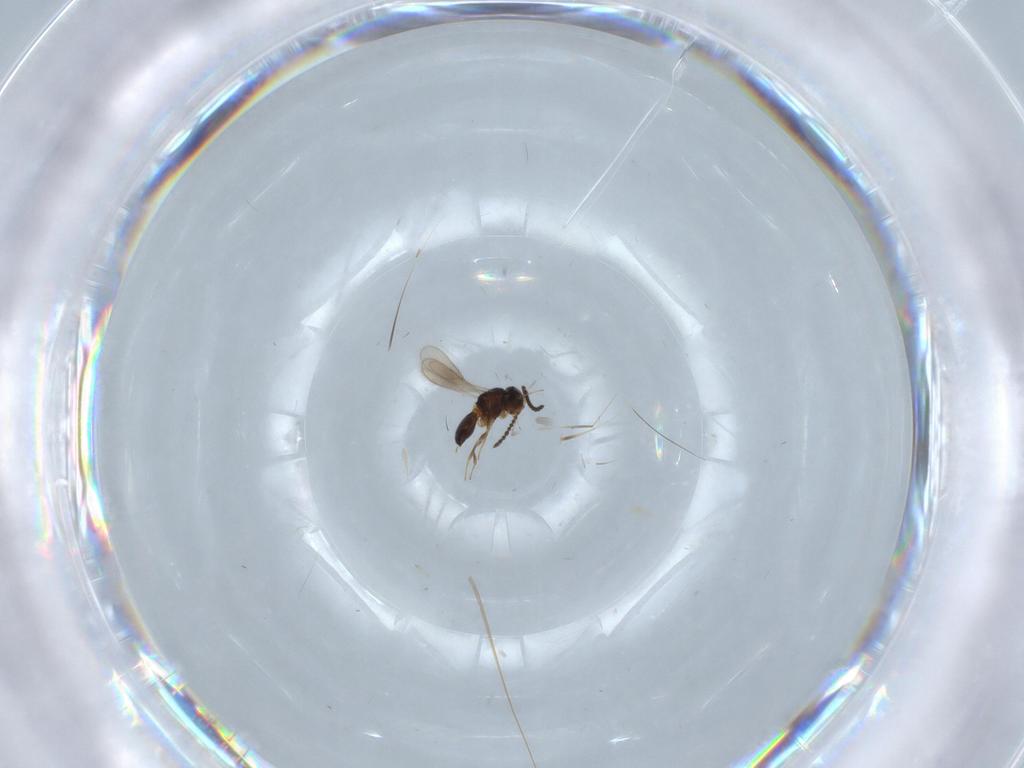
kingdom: Animalia
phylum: Arthropoda
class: Insecta
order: Hymenoptera
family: Scelionidae
